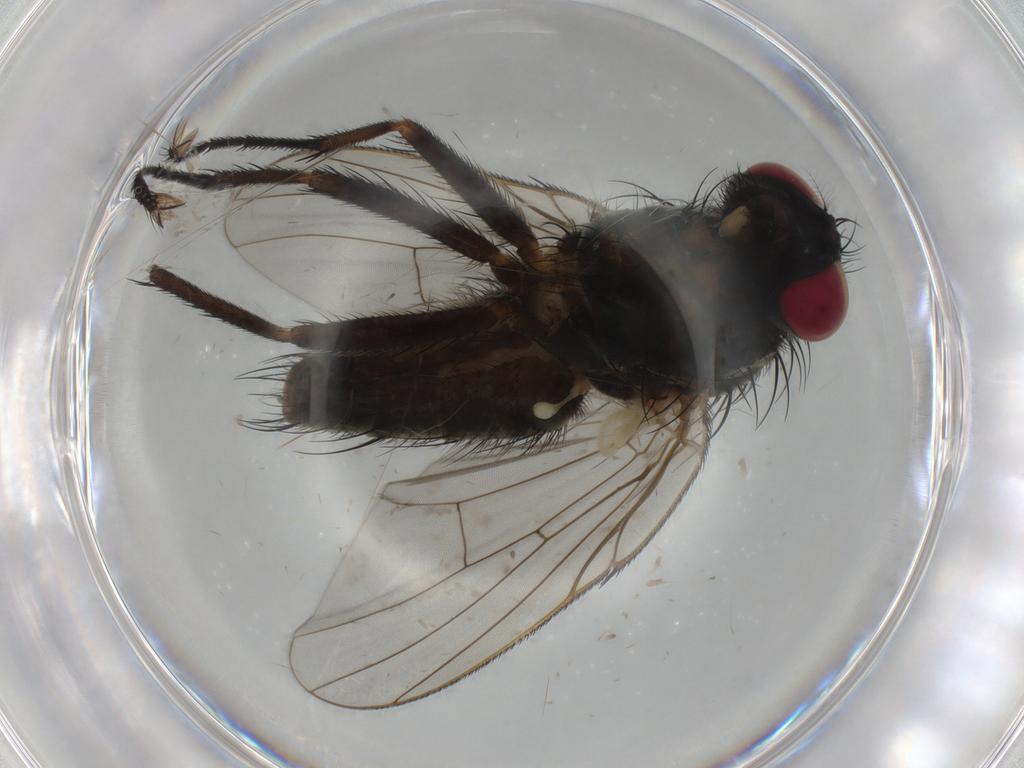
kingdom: Animalia
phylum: Arthropoda
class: Insecta
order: Diptera
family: Muscidae
